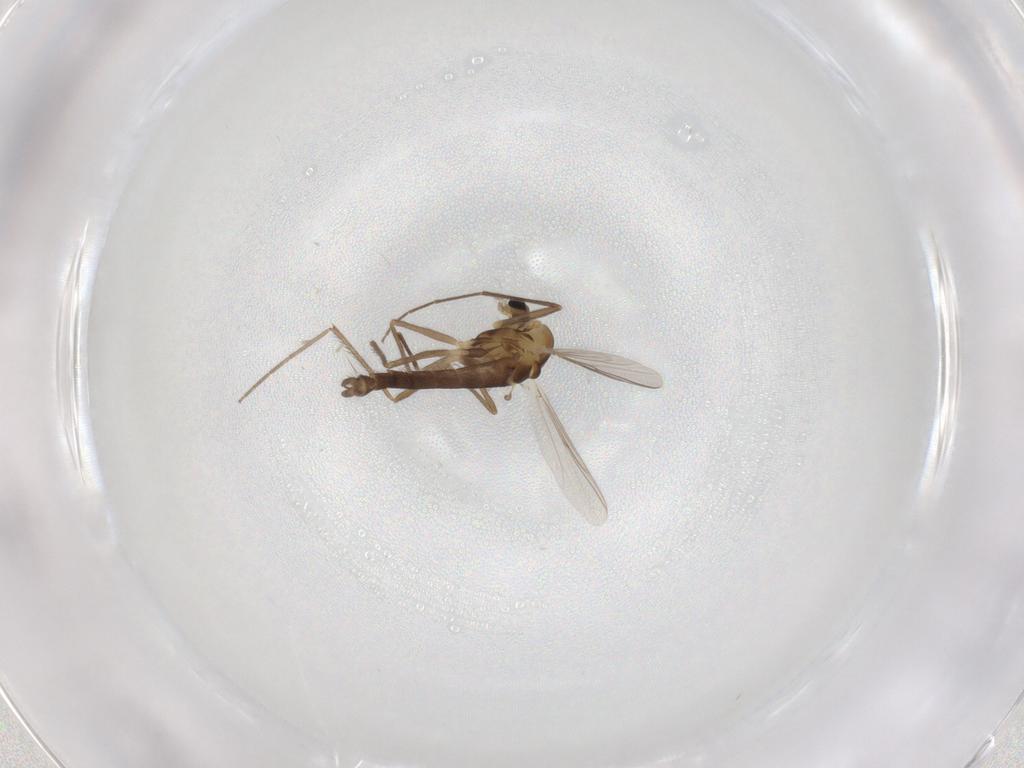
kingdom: Animalia
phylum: Arthropoda
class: Insecta
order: Diptera
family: Chironomidae
